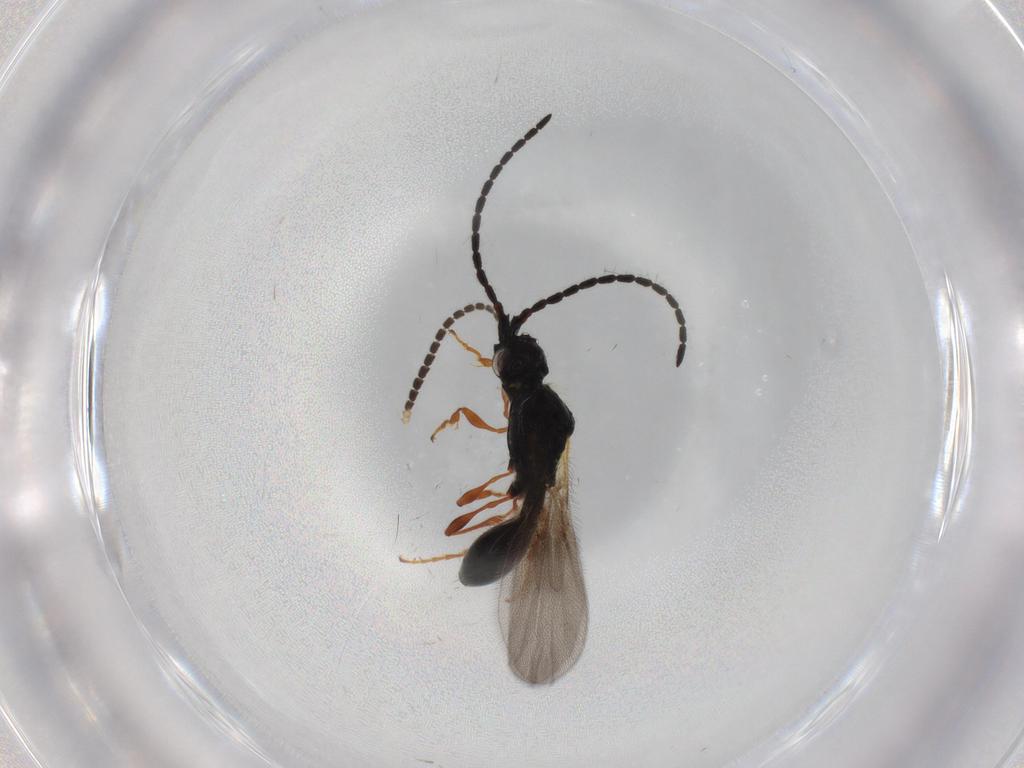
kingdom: Animalia
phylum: Arthropoda
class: Insecta
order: Hymenoptera
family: Diapriidae
